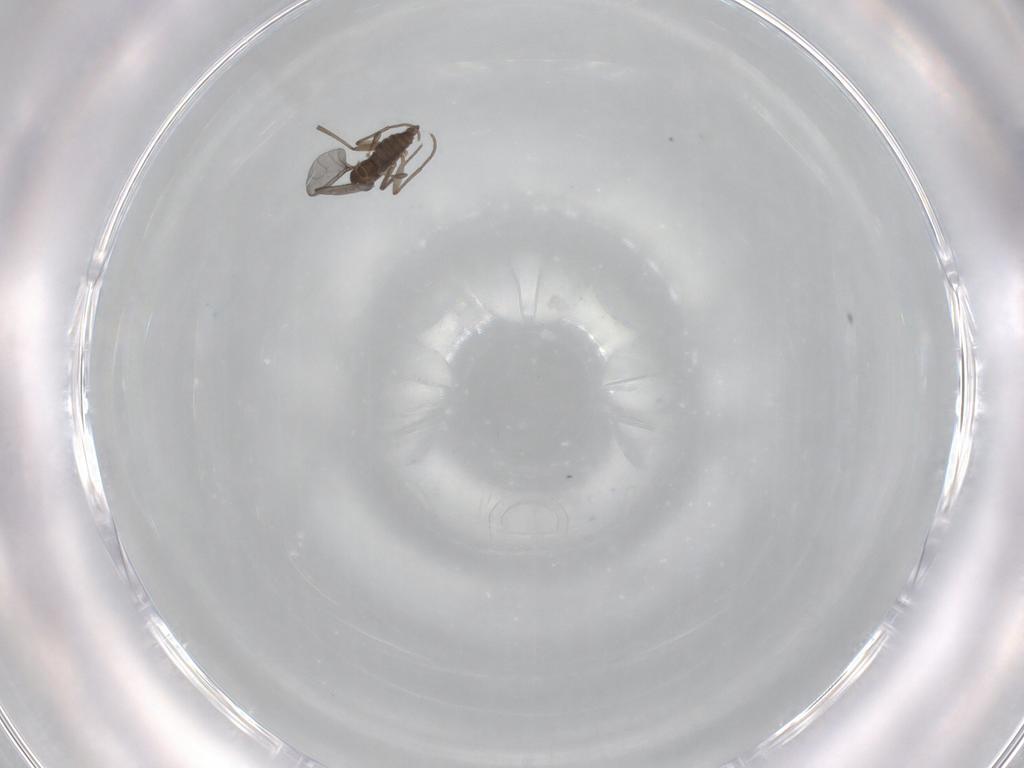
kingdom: Animalia
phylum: Arthropoda
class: Insecta
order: Diptera
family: Sciaridae
